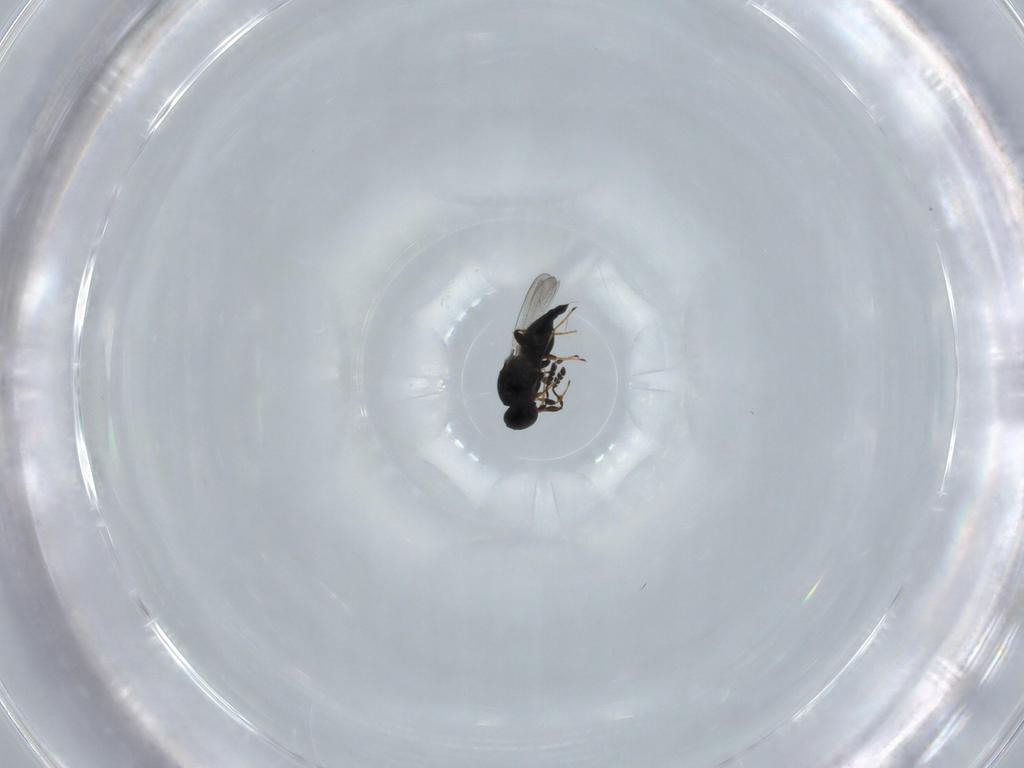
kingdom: Animalia
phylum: Arthropoda
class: Insecta
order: Hymenoptera
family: Platygastridae
